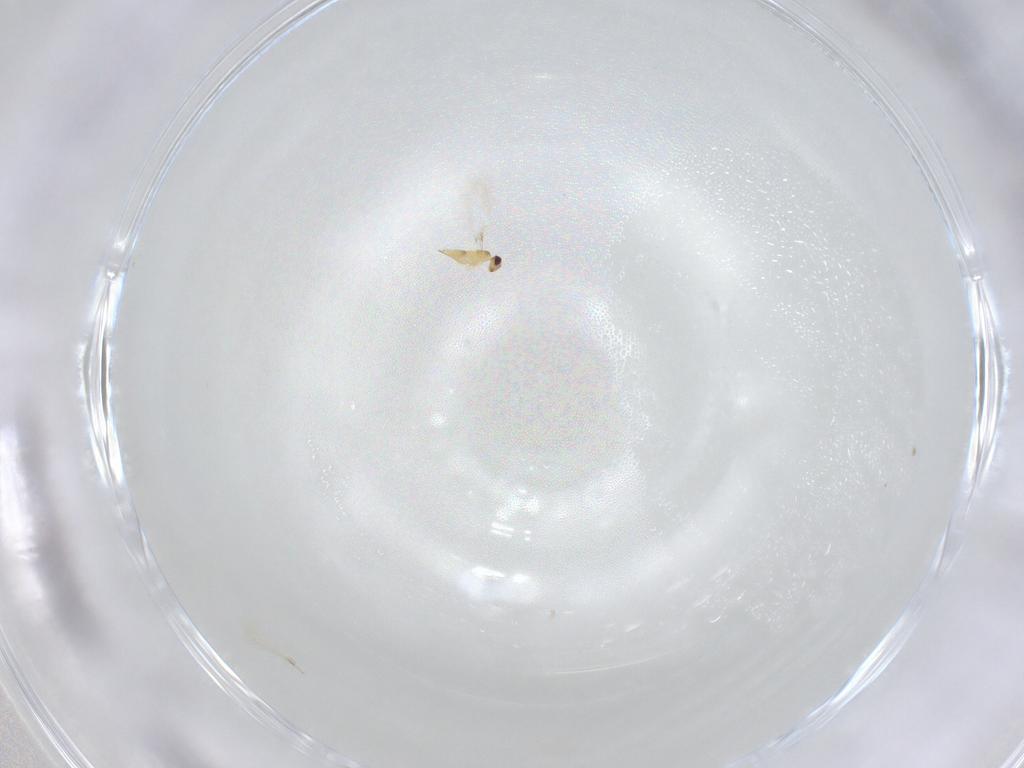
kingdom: Animalia
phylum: Arthropoda
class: Insecta
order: Hymenoptera
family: Mymaridae
